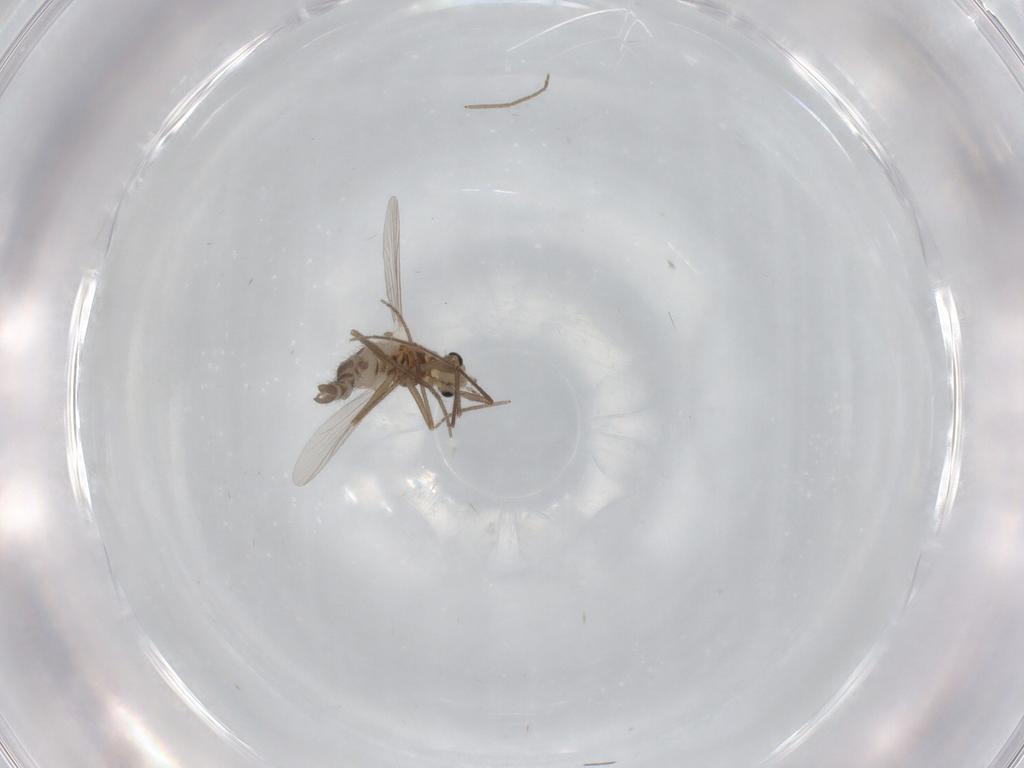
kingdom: Animalia
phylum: Arthropoda
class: Insecta
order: Diptera
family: Chironomidae
